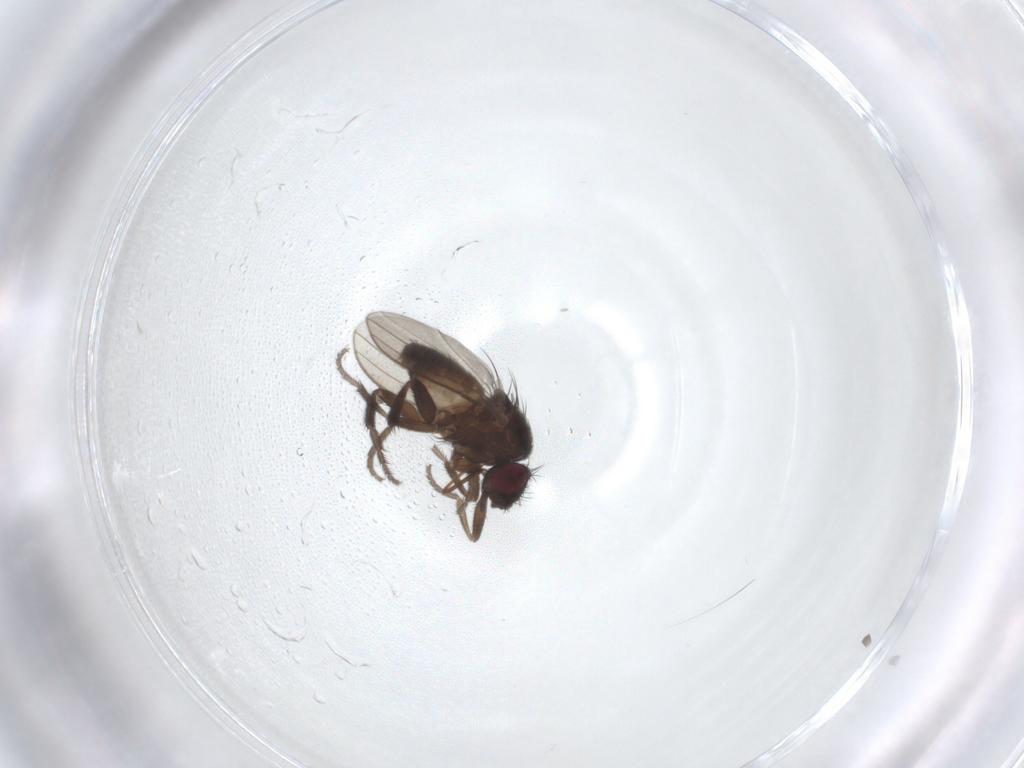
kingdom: Animalia
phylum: Arthropoda
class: Insecta
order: Diptera
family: Milichiidae
